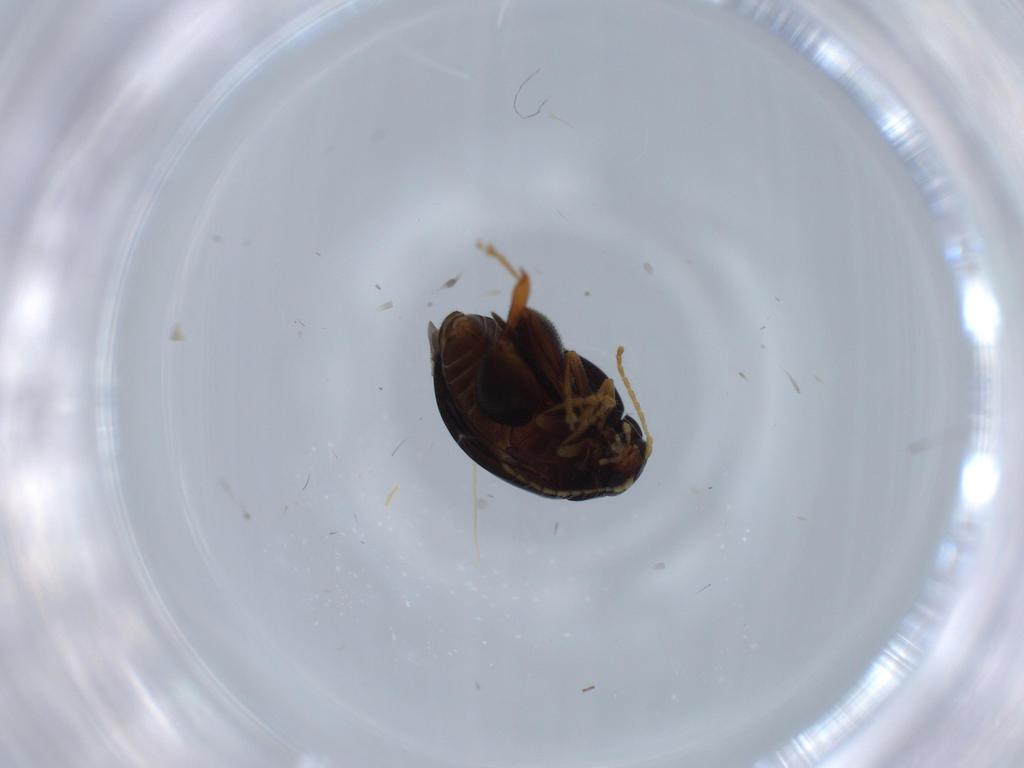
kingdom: Animalia
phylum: Arthropoda
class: Insecta
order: Coleoptera
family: Chrysomelidae
